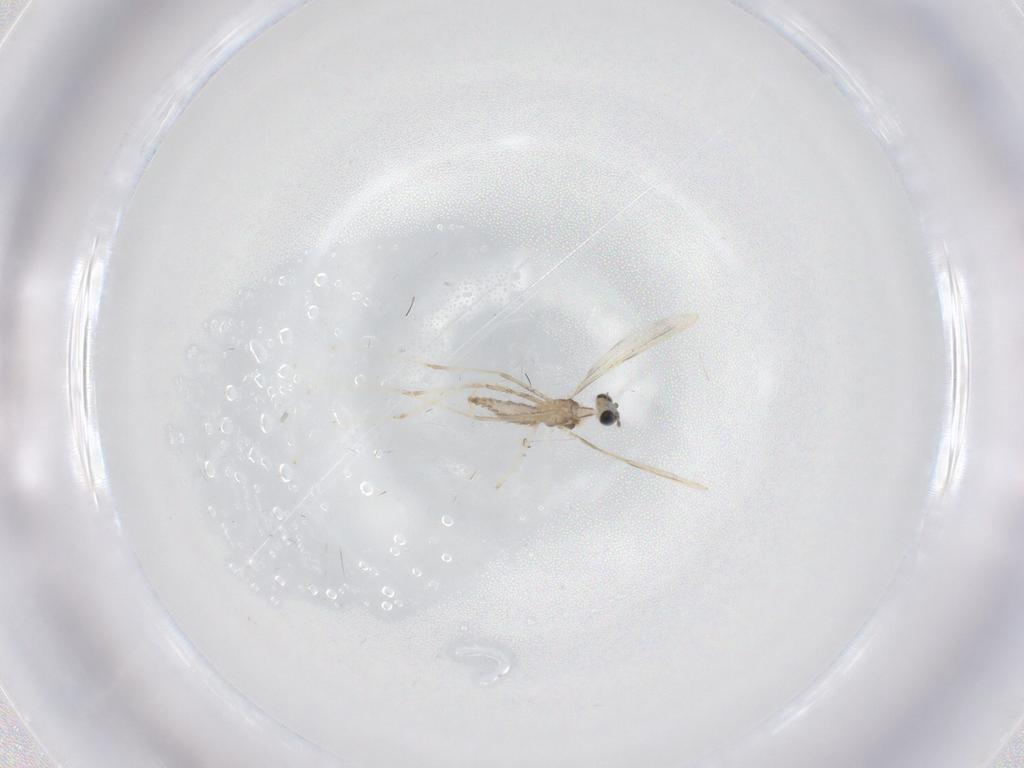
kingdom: Animalia
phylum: Arthropoda
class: Insecta
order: Diptera
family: Cecidomyiidae
